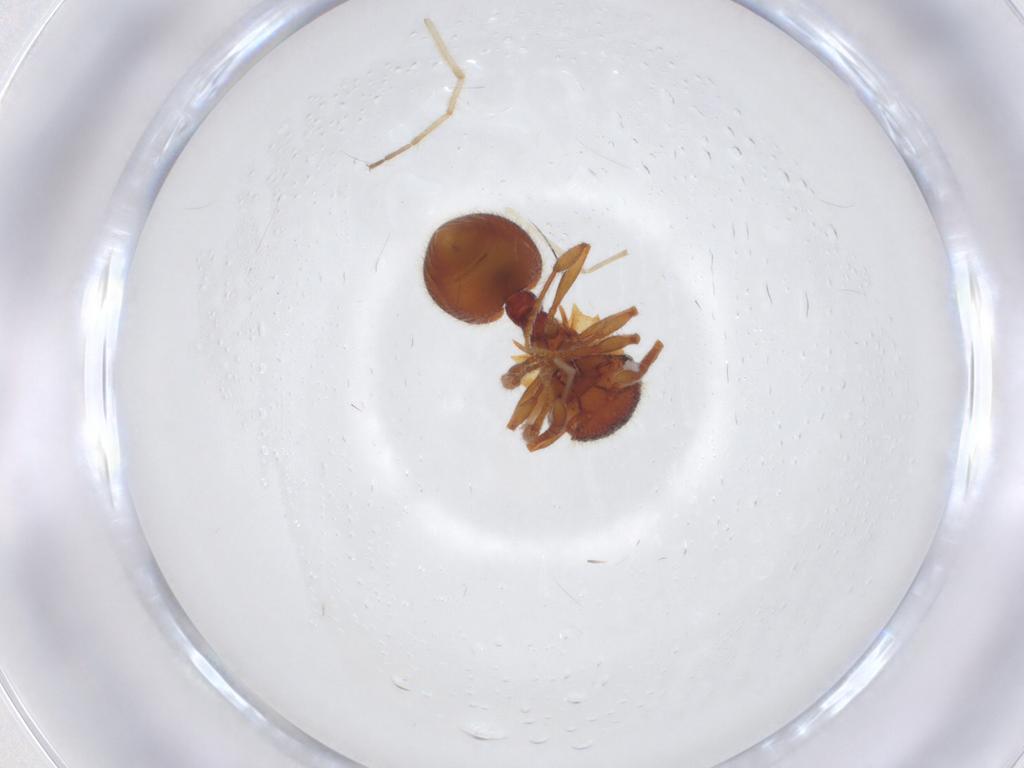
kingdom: Animalia
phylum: Arthropoda
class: Insecta
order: Hymenoptera
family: Formicidae
